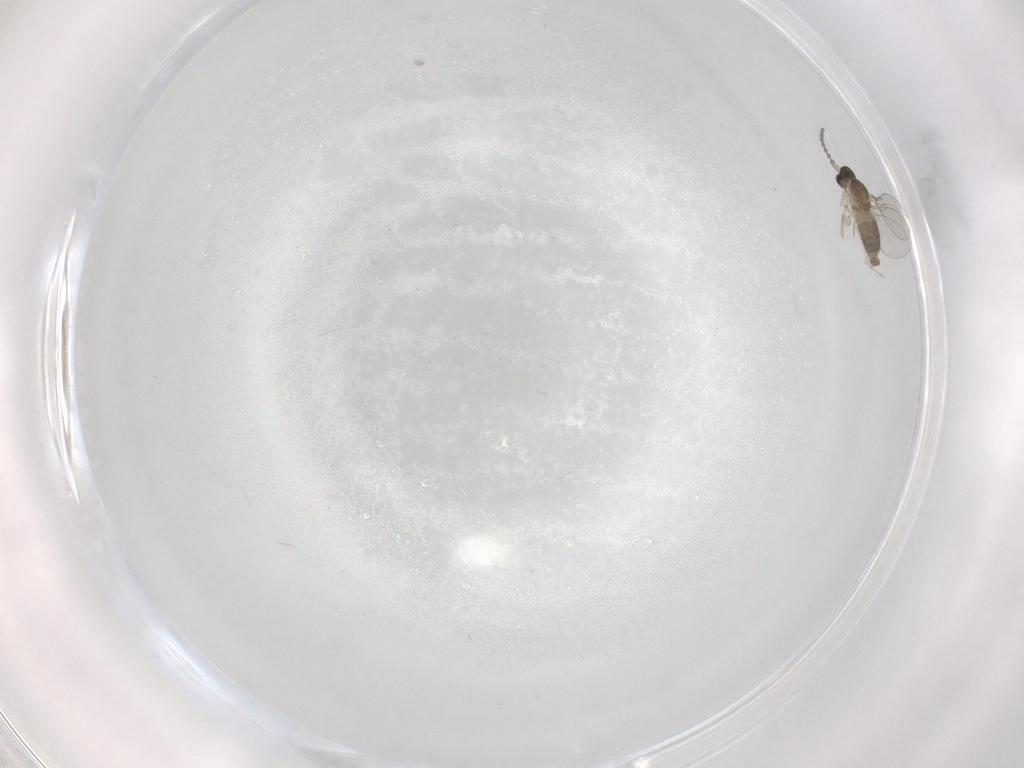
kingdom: Animalia
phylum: Arthropoda
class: Insecta
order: Diptera
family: Cecidomyiidae
